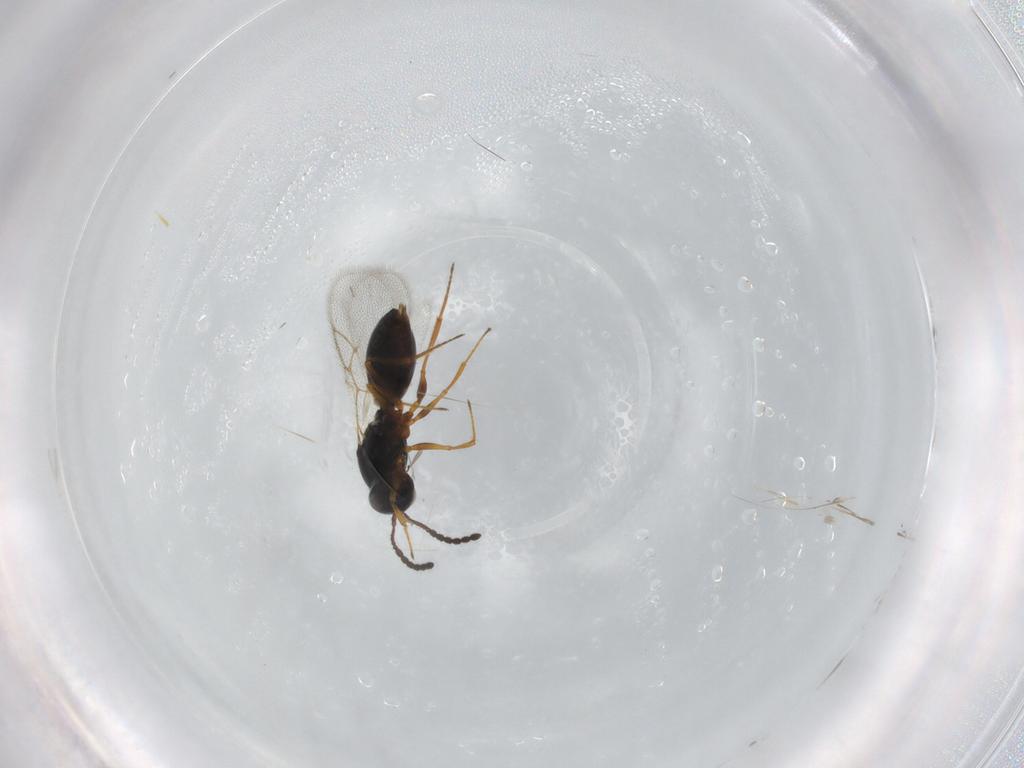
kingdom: Animalia
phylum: Arthropoda
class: Insecta
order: Hymenoptera
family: Figitidae
